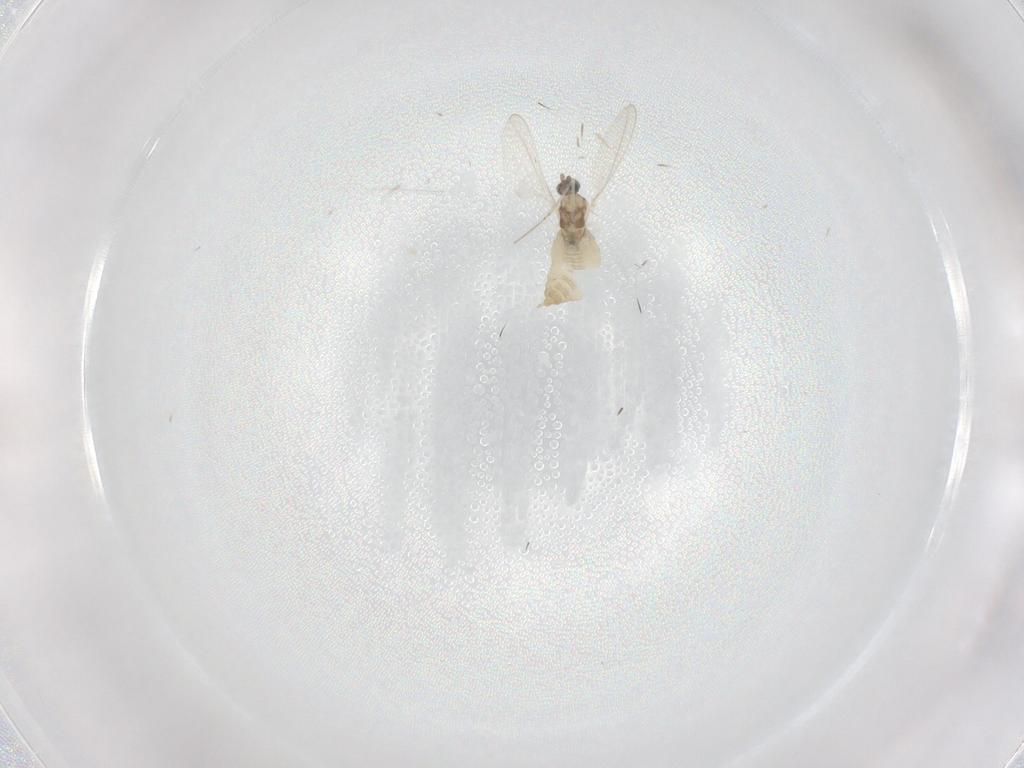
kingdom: Animalia
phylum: Arthropoda
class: Insecta
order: Diptera
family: Cecidomyiidae
